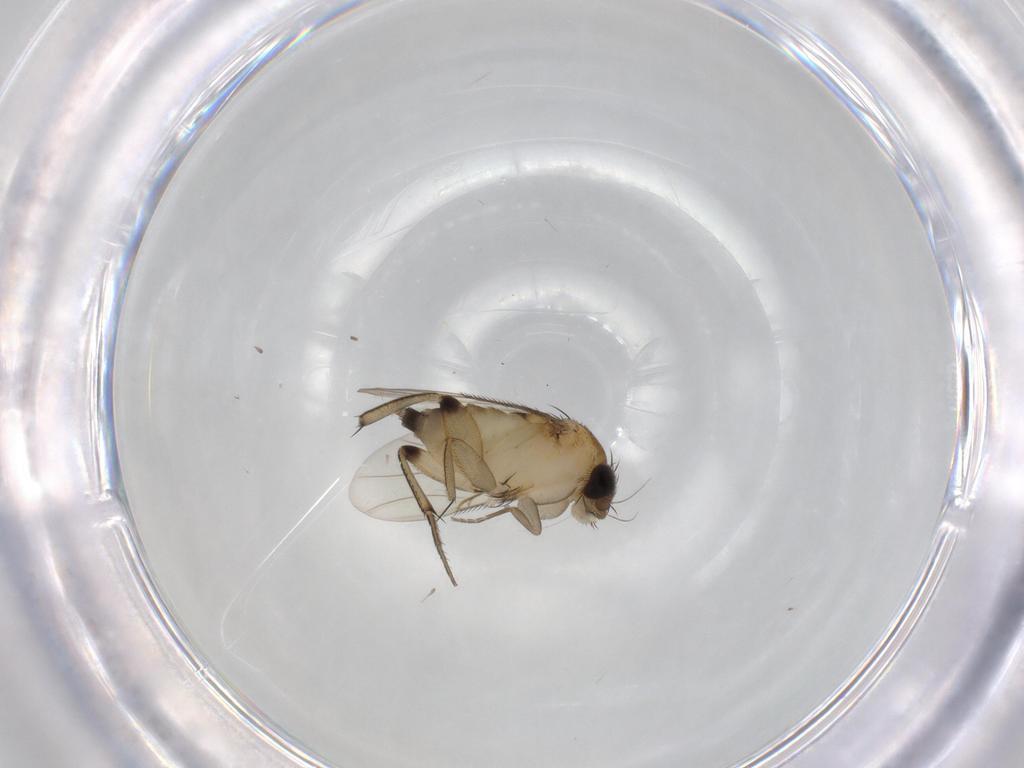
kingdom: Animalia
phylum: Arthropoda
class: Insecta
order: Diptera
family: Phoridae
